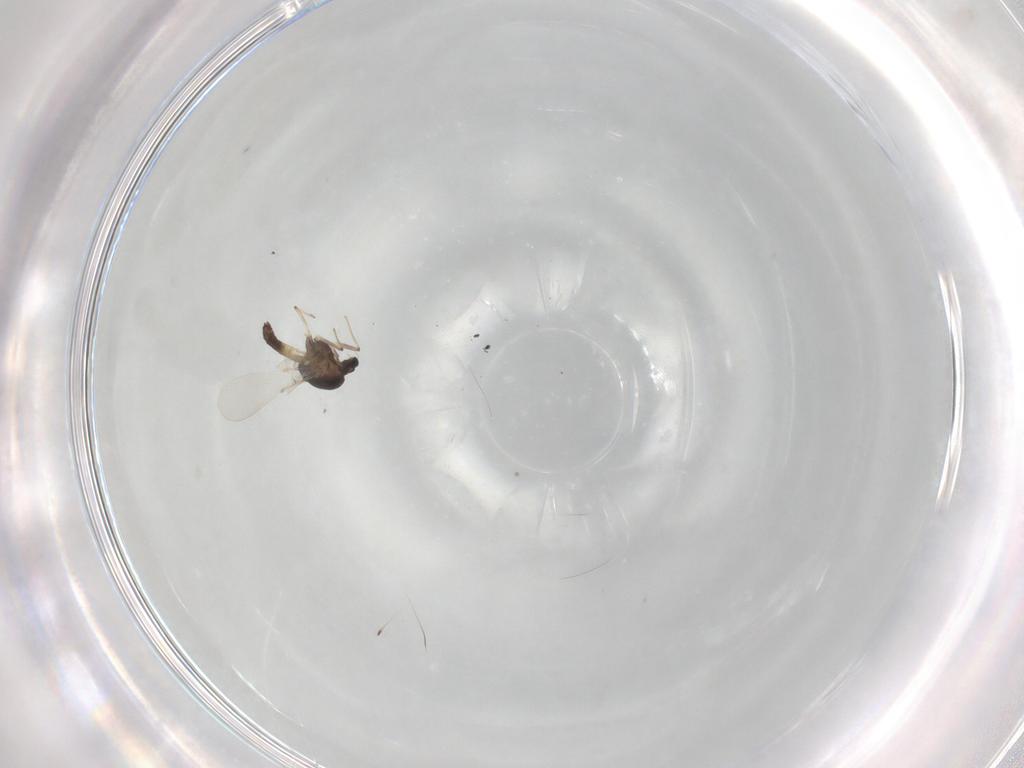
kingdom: Animalia
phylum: Arthropoda
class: Insecta
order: Diptera
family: Chironomidae
